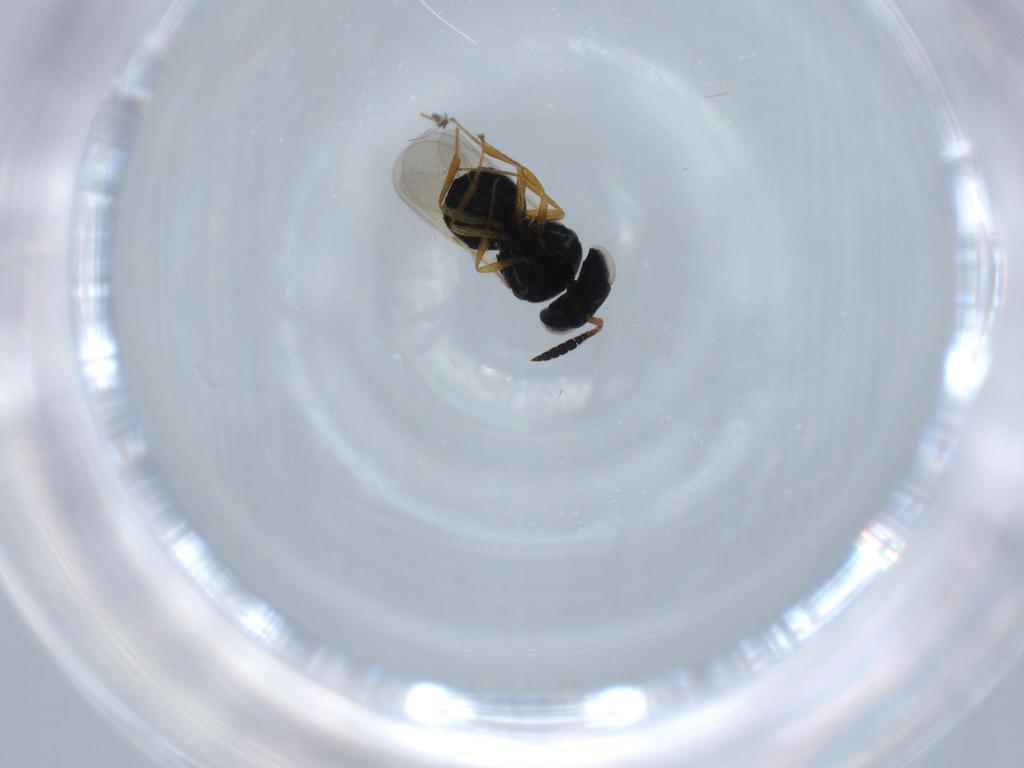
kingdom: Animalia
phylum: Arthropoda
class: Insecta
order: Hymenoptera
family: Scelionidae
